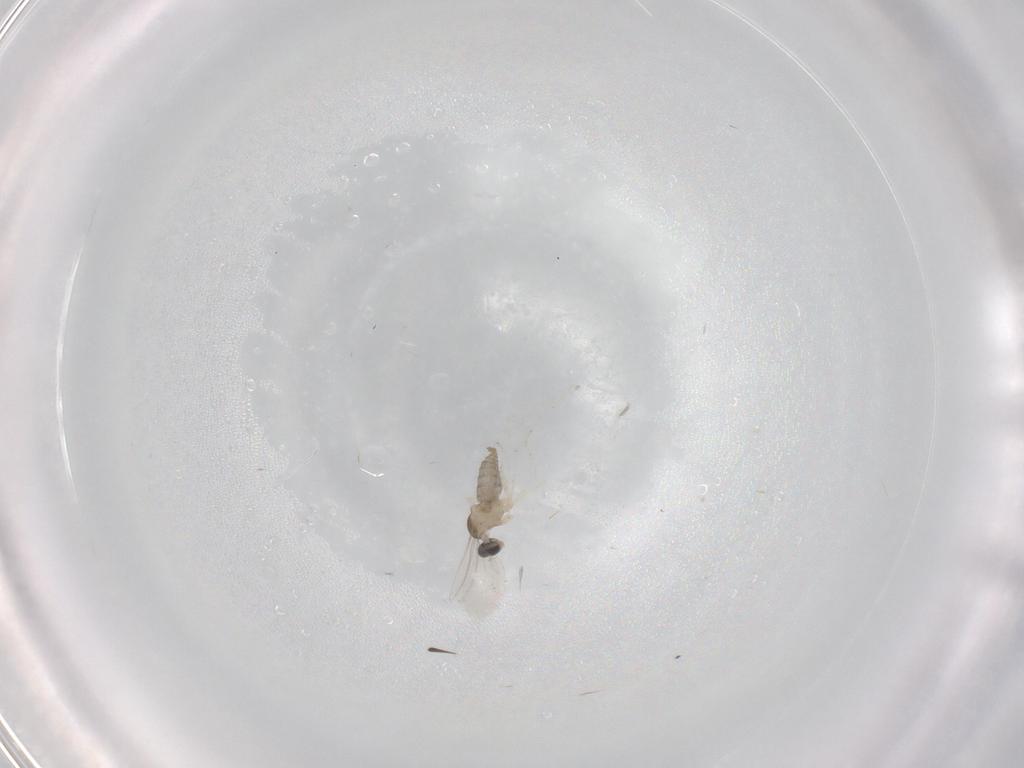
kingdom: Animalia
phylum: Arthropoda
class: Insecta
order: Diptera
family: Cecidomyiidae
